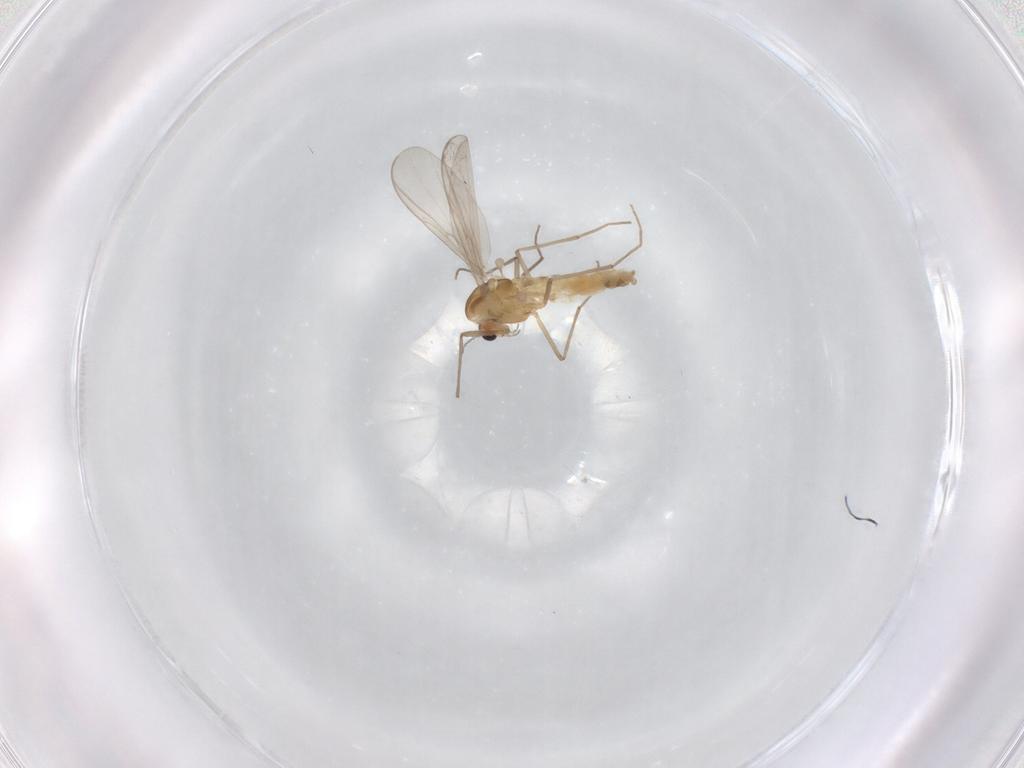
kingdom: Animalia
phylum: Arthropoda
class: Insecta
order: Diptera
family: Chironomidae
